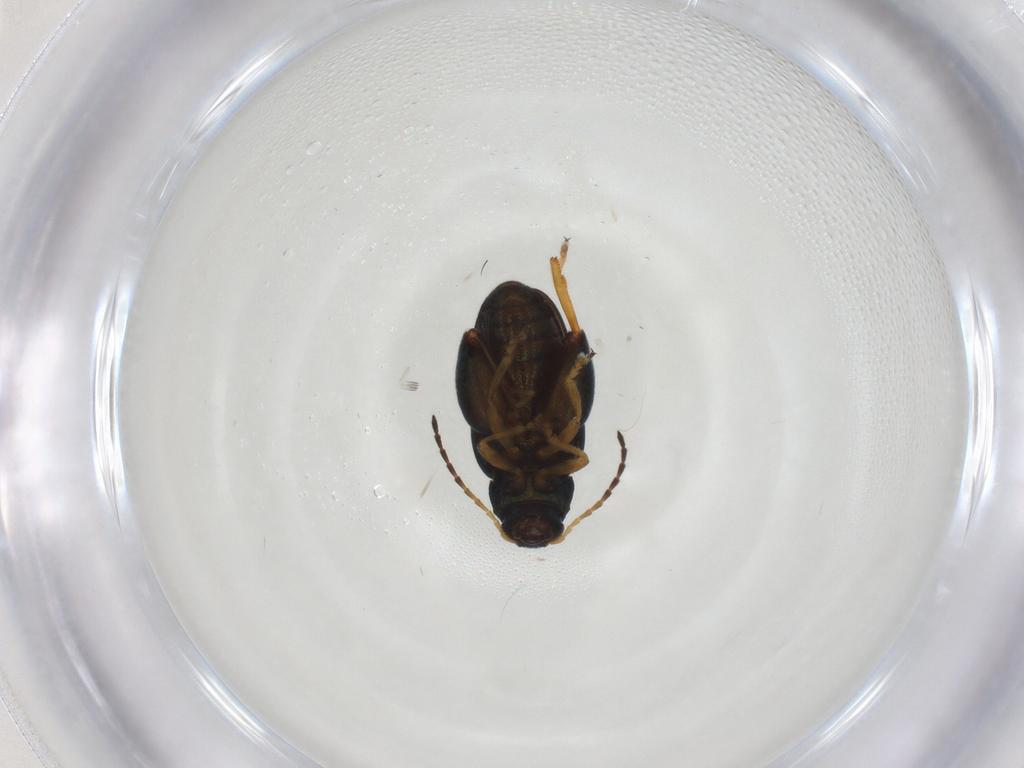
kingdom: Animalia
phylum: Arthropoda
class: Insecta
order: Coleoptera
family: Chrysomelidae
